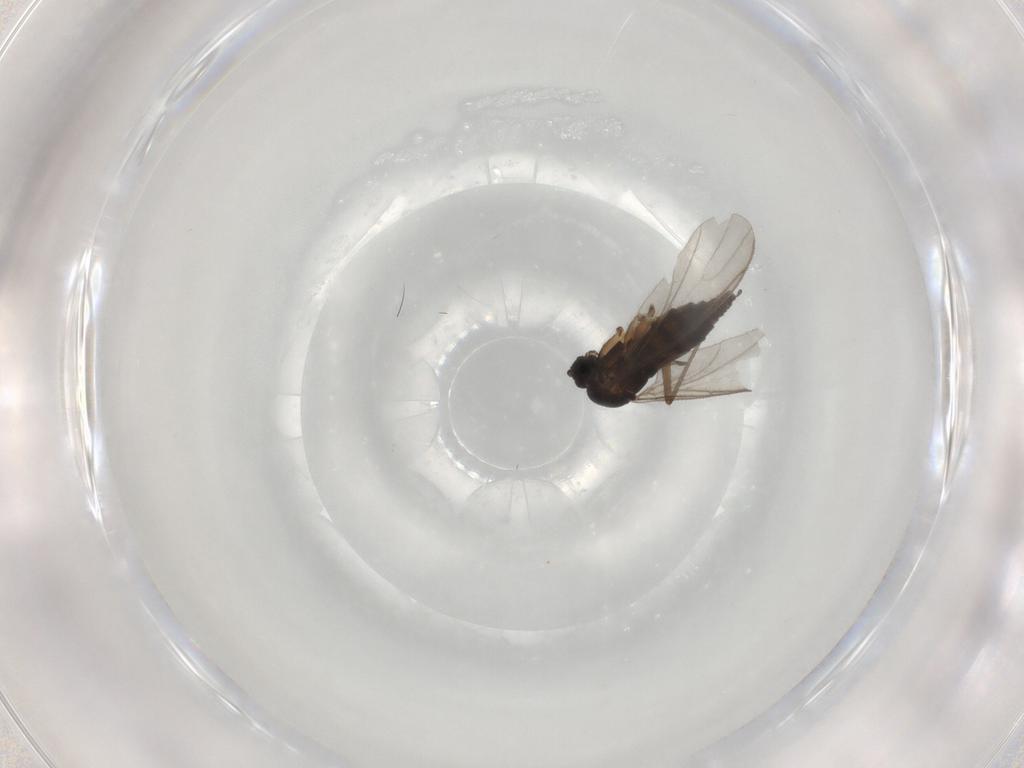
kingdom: Animalia
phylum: Arthropoda
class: Insecta
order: Diptera
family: Sciaridae
